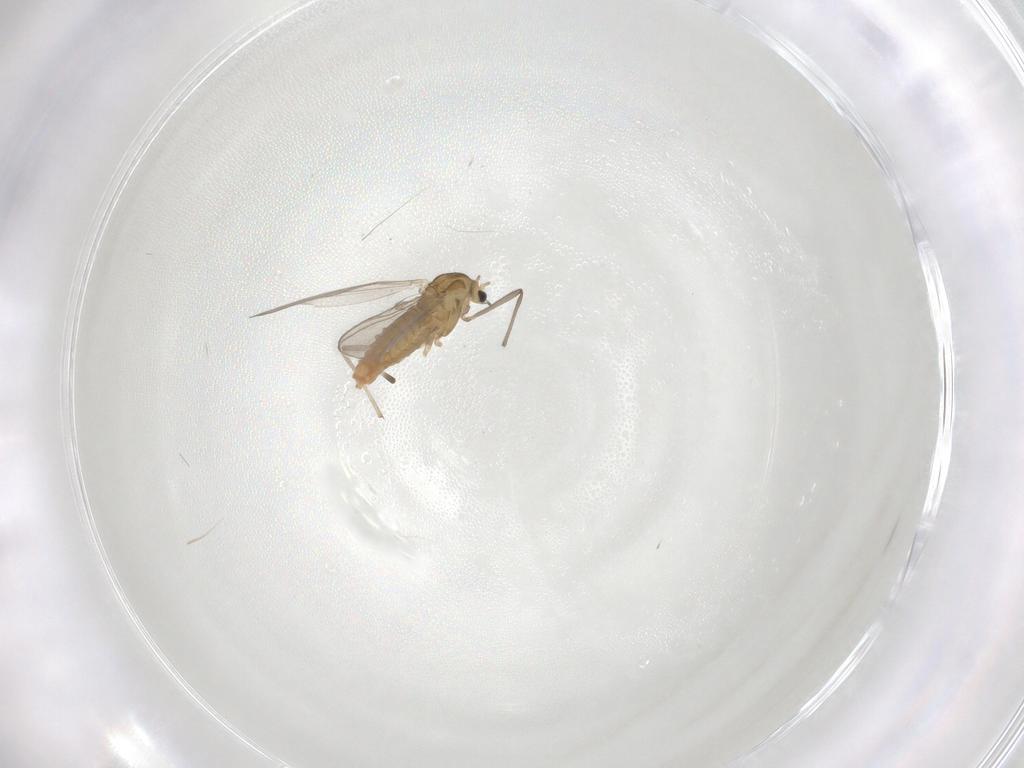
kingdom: Animalia
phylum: Arthropoda
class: Insecta
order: Diptera
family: Chironomidae
